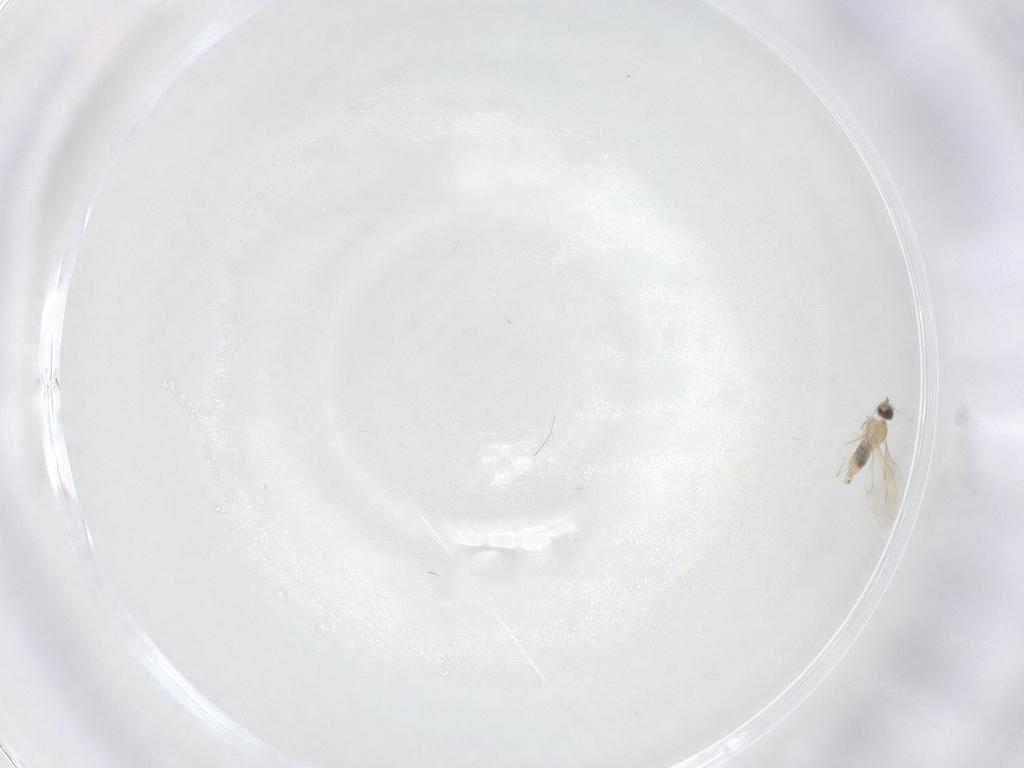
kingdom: Animalia
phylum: Arthropoda
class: Insecta
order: Diptera
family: Cecidomyiidae
